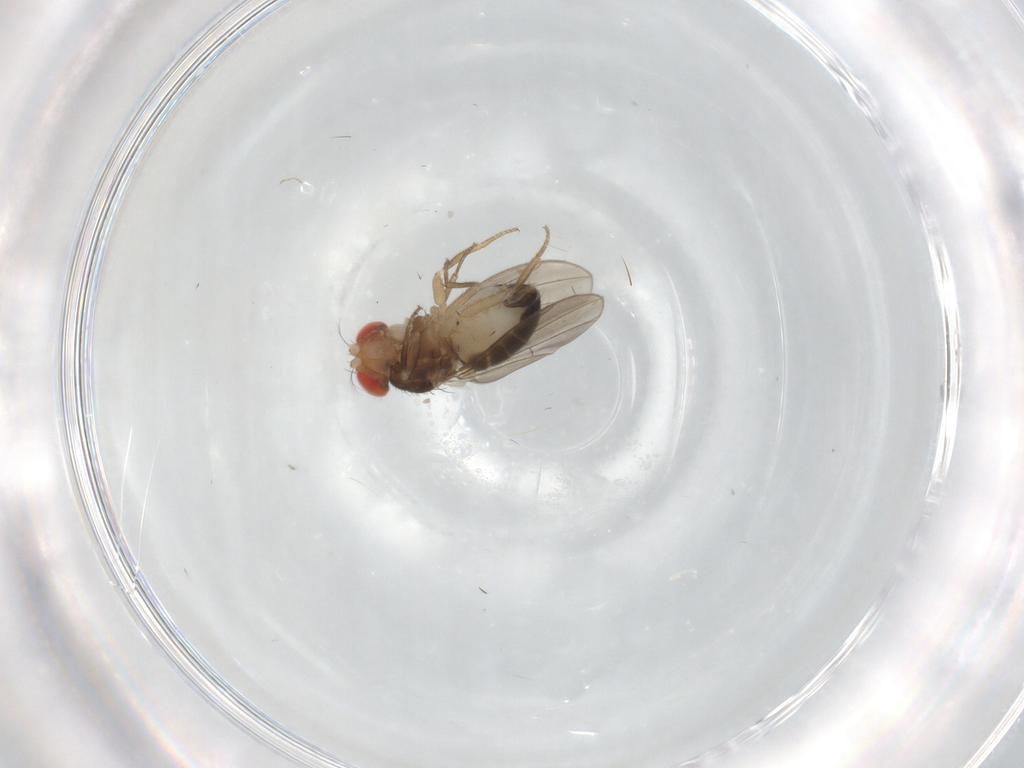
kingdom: Animalia
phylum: Arthropoda
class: Insecta
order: Diptera
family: Drosophilidae
